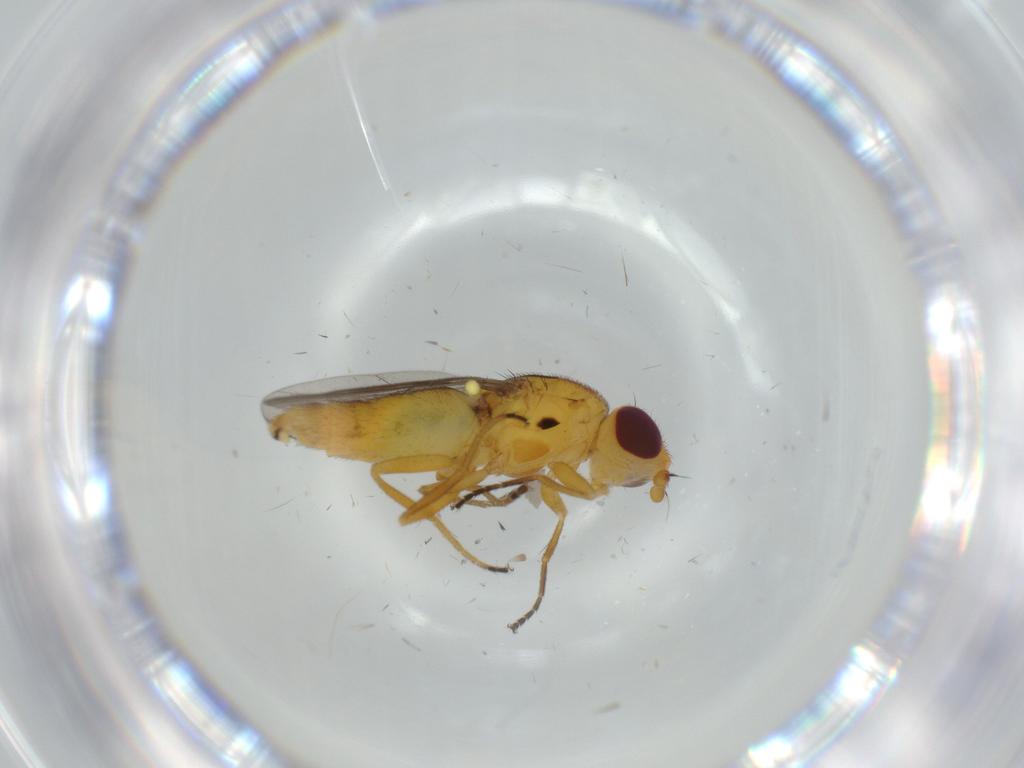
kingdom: Animalia
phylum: Arthropoda
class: Insecta
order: Diptera
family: Chloropidae
